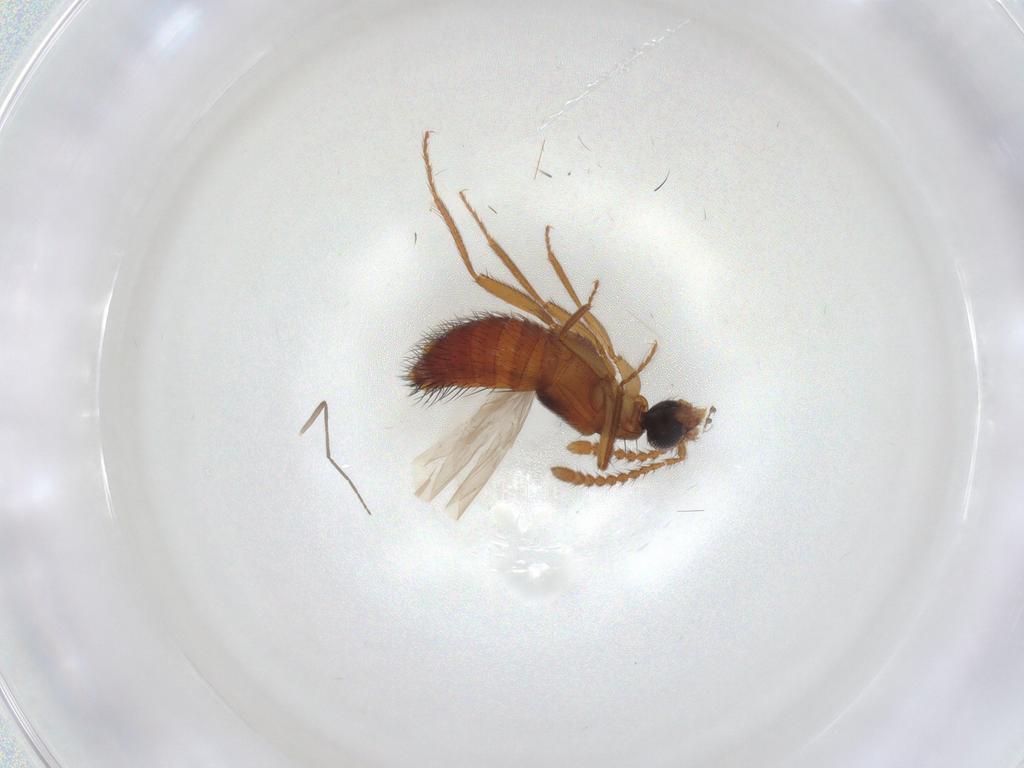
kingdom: Animalia
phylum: Arthropoda
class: Insecta
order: Coleoptera
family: Staphylinidae
